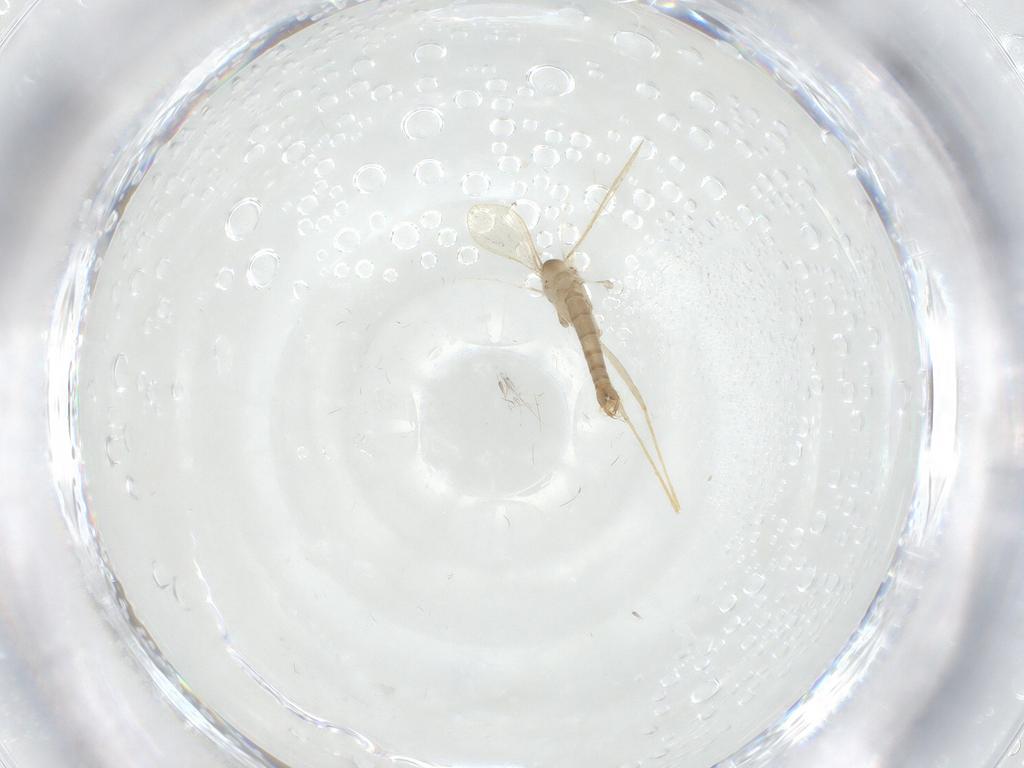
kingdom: Animalia
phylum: Arthropoda
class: Insecta
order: Diptera
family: Psychodidae
